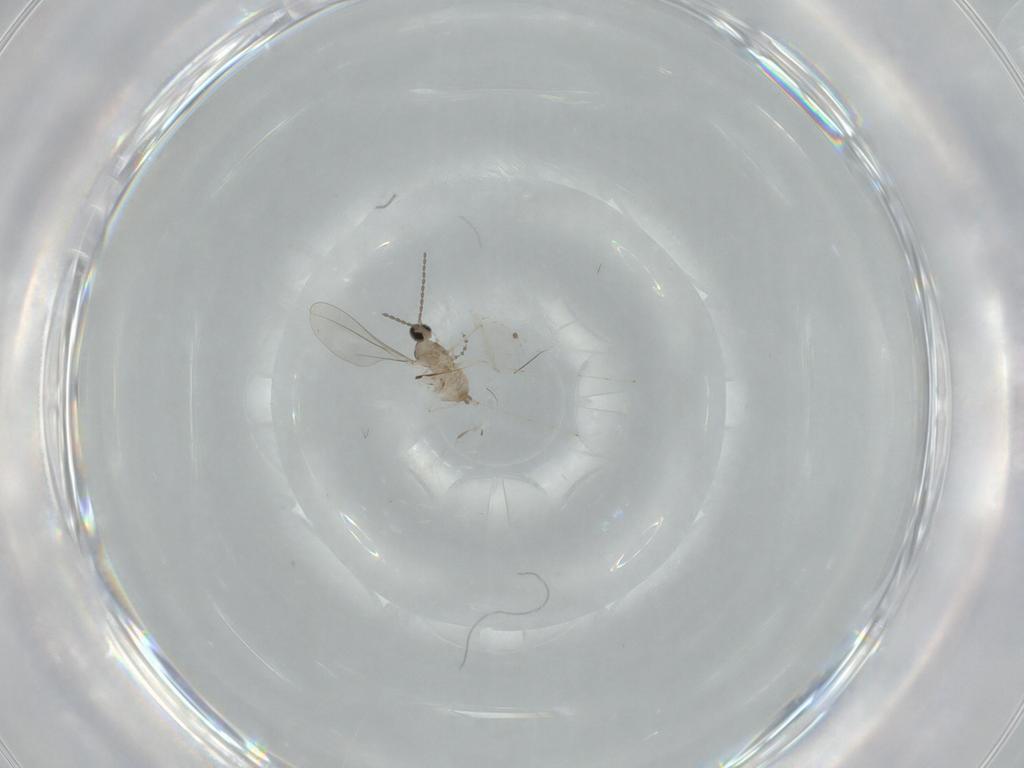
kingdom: Animalia
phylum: Arthropoda
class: Insecta
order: Diptera
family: Cecidomyiidae
